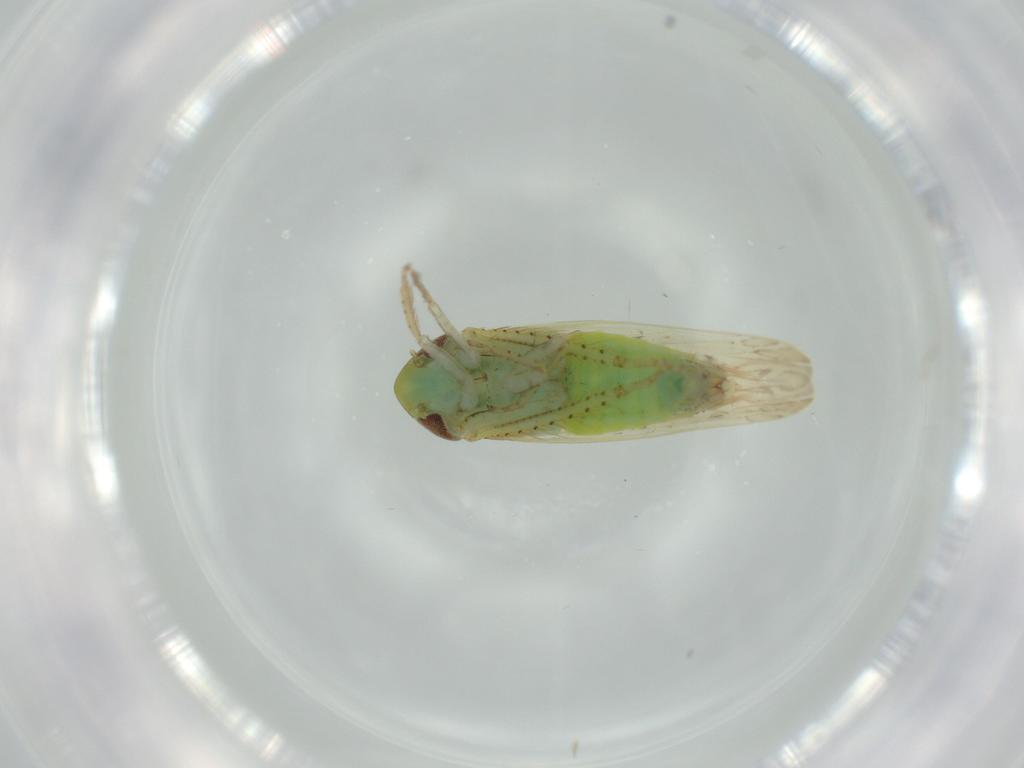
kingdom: Animalia
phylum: Arthropoda
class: Insecta
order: Hemiptera
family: Cicadellidae
